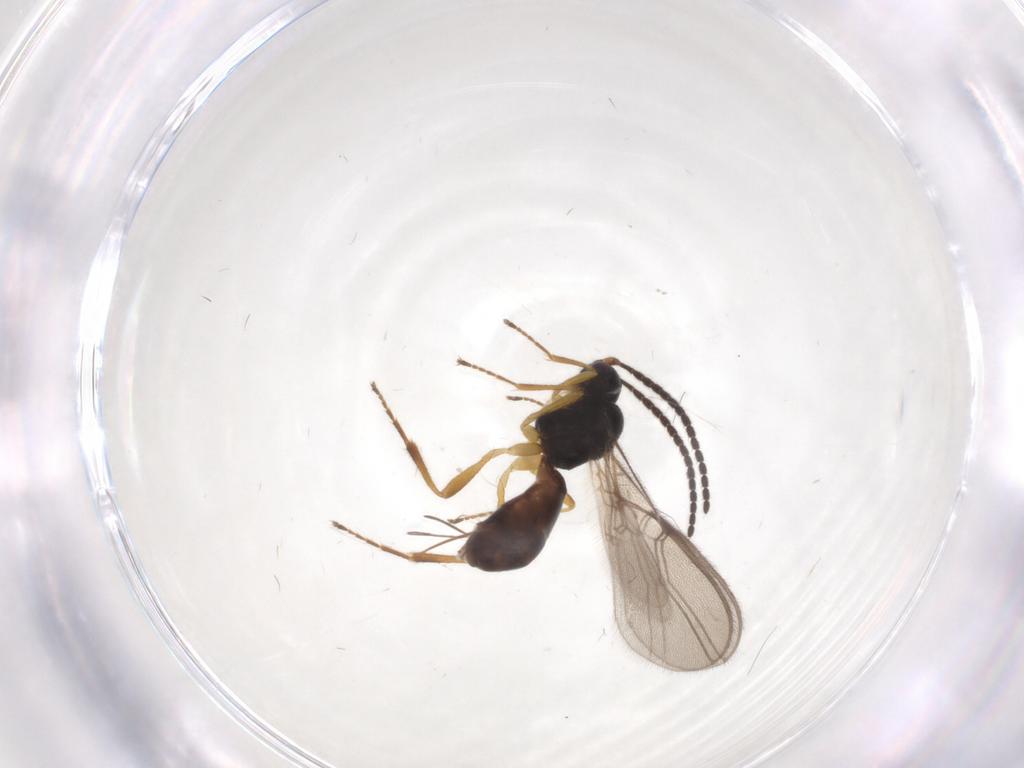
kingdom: Animalia
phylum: Arthropoda
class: Insecta
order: Hymenoptera
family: Braconidae
